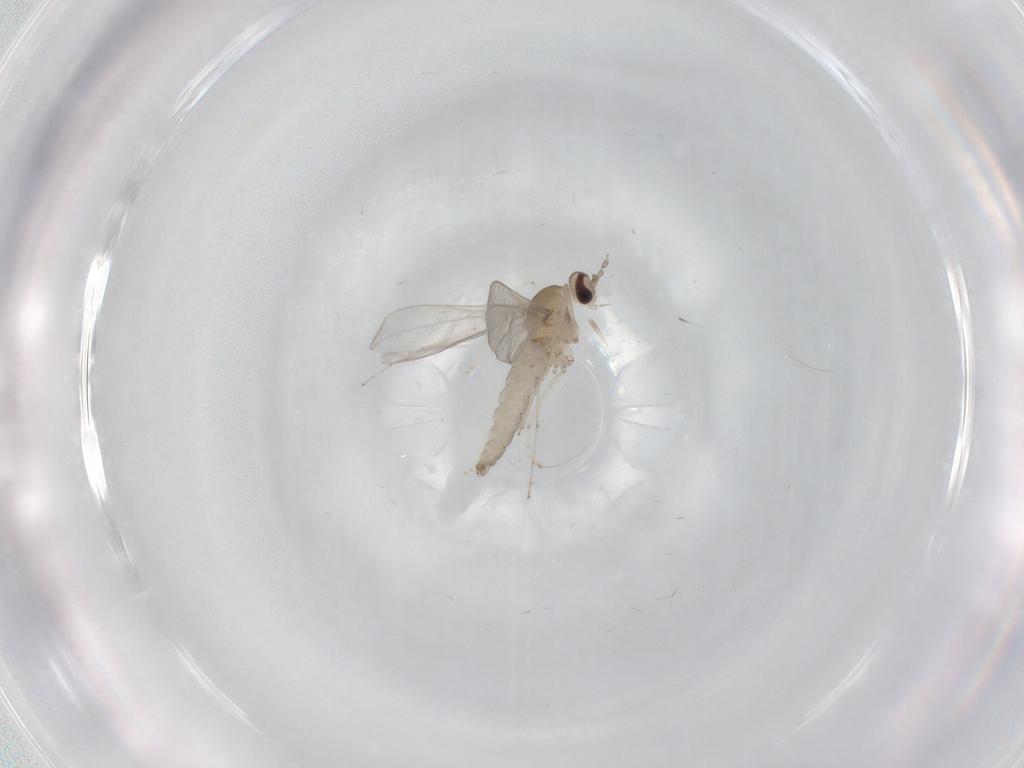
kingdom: Animalia
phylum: Arthropoda
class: Insecta
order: Diptera
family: Cecidomyiidae
